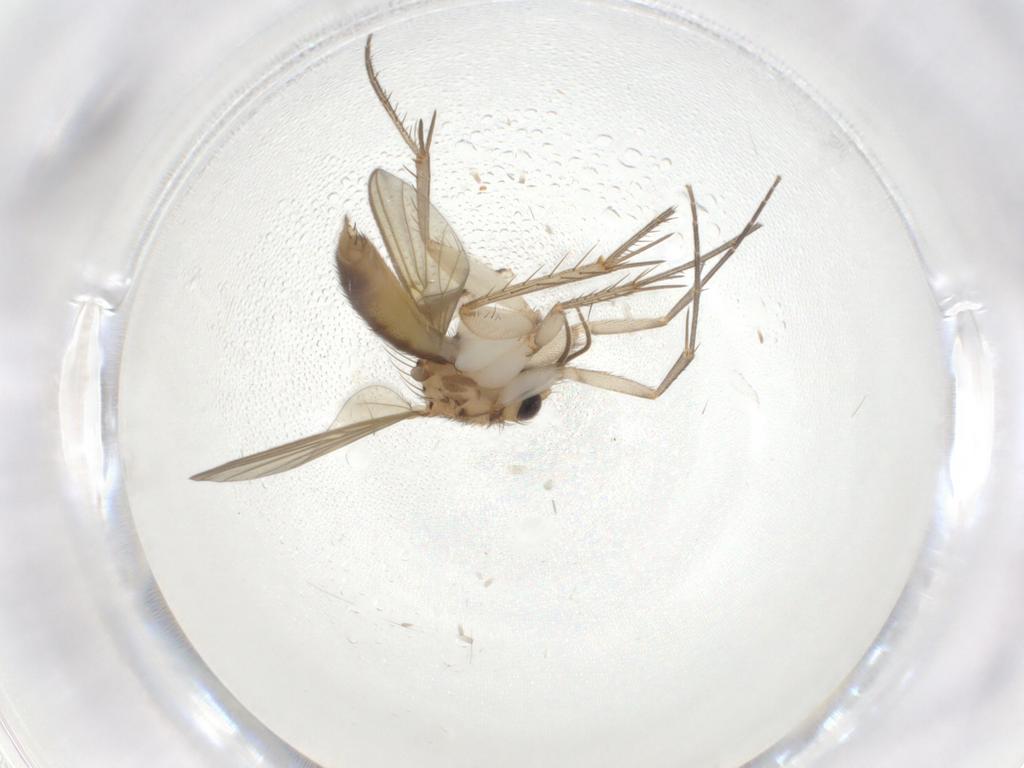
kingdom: Animalia
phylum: Arthropoda
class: Insecta
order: Diptera
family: Mycetophilidae
